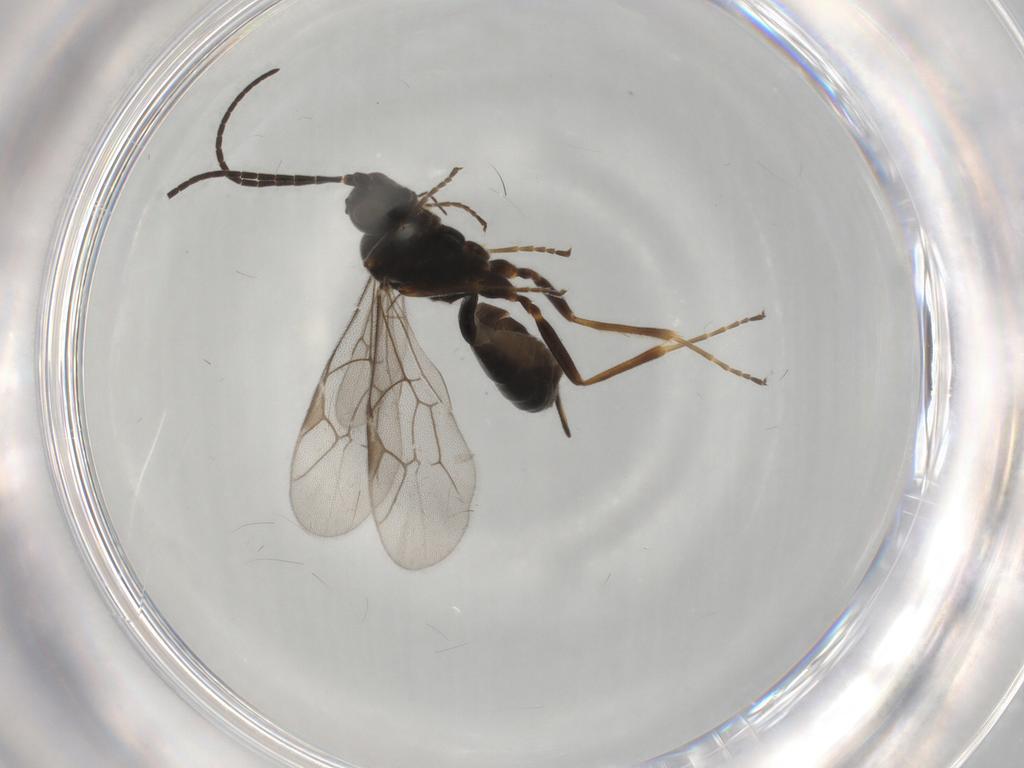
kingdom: Animalia
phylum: Arthropoda
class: Insecta
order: Hymenoptera
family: Ichneumonidae
